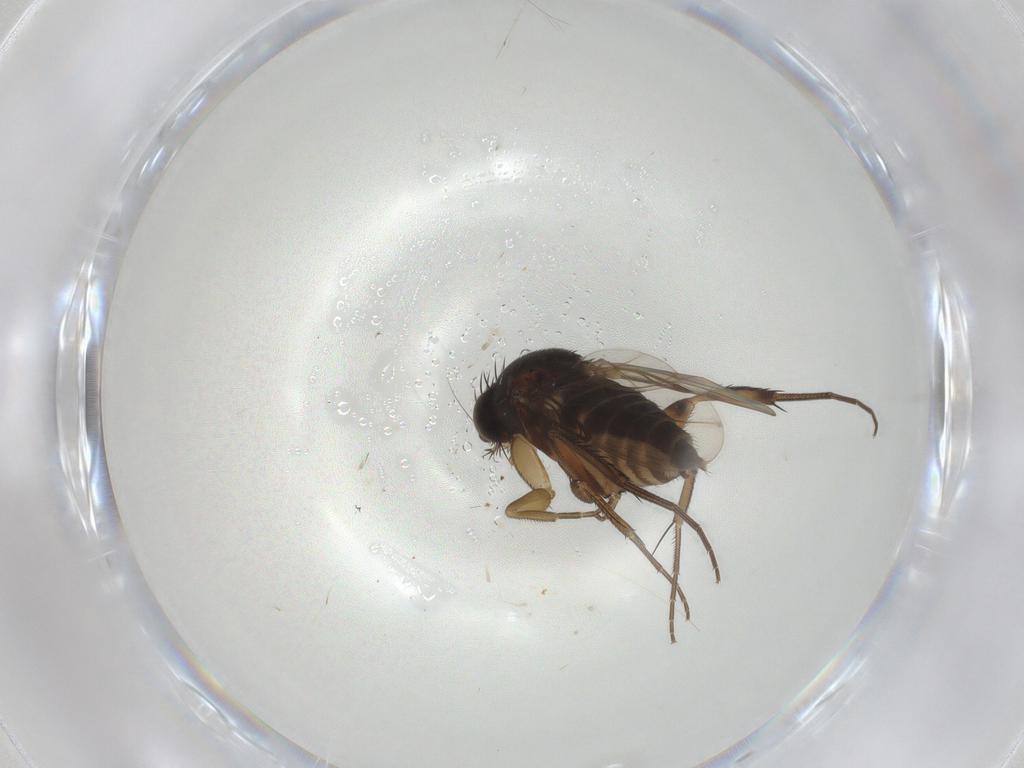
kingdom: Animalia
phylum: Arthropoda
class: Insecta
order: Diptera
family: Phoridae
